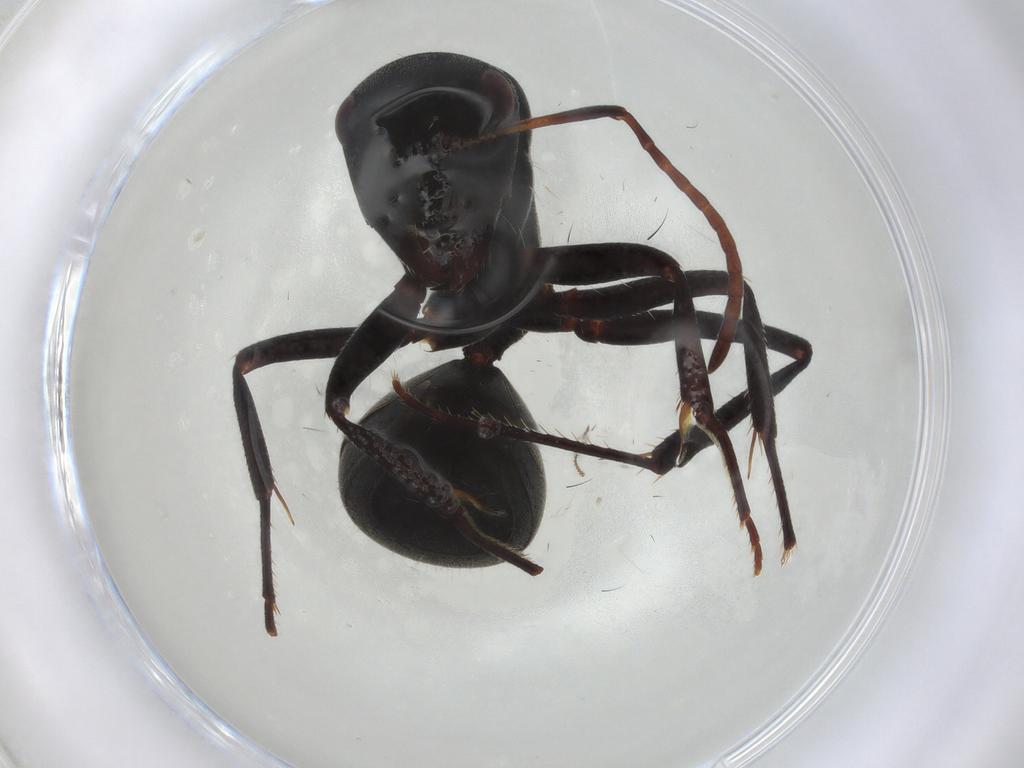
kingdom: Animalia
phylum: Arthropoda
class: Insecta
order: Hymenoptera
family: Formicidae
